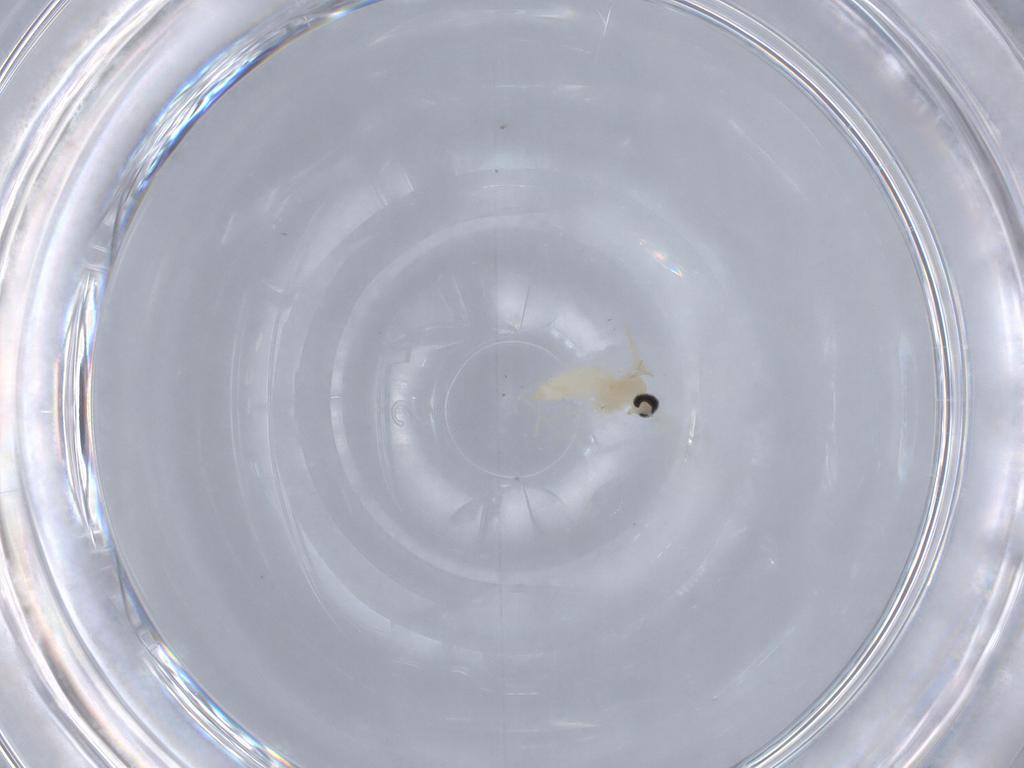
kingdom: Animalia
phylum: Arthropoda
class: Insecta
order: Diptera
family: Cecidomyiidae
